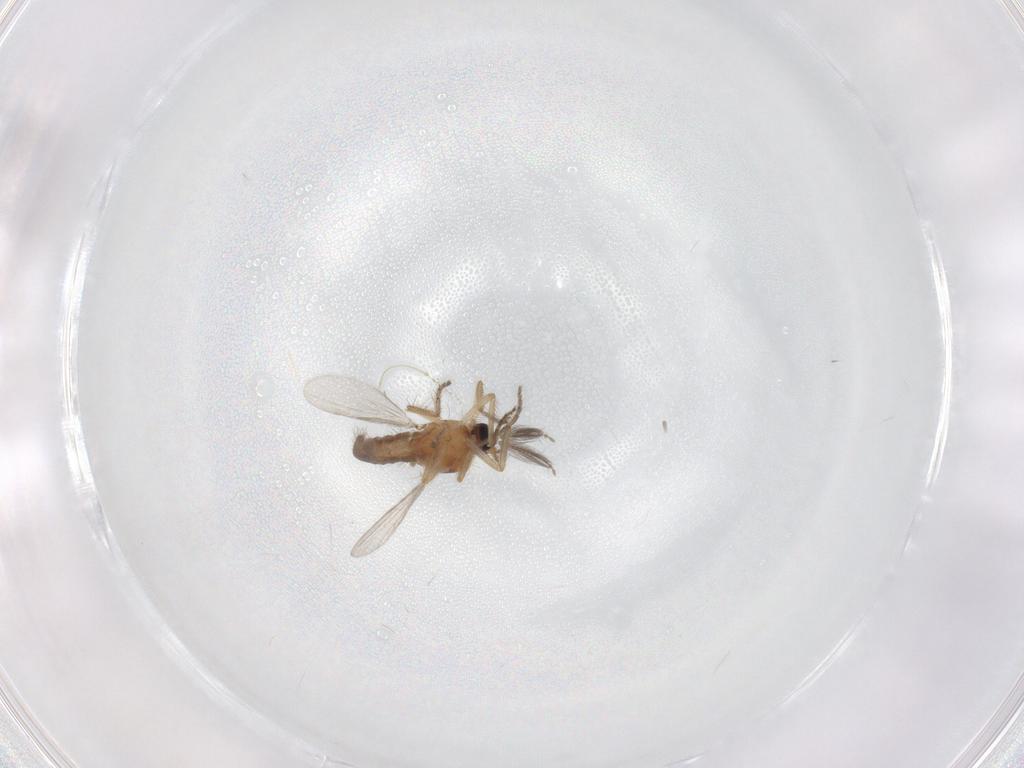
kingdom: Animalia
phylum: Arthropoda
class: Insecta
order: Diptera
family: Ceratopogonidae
